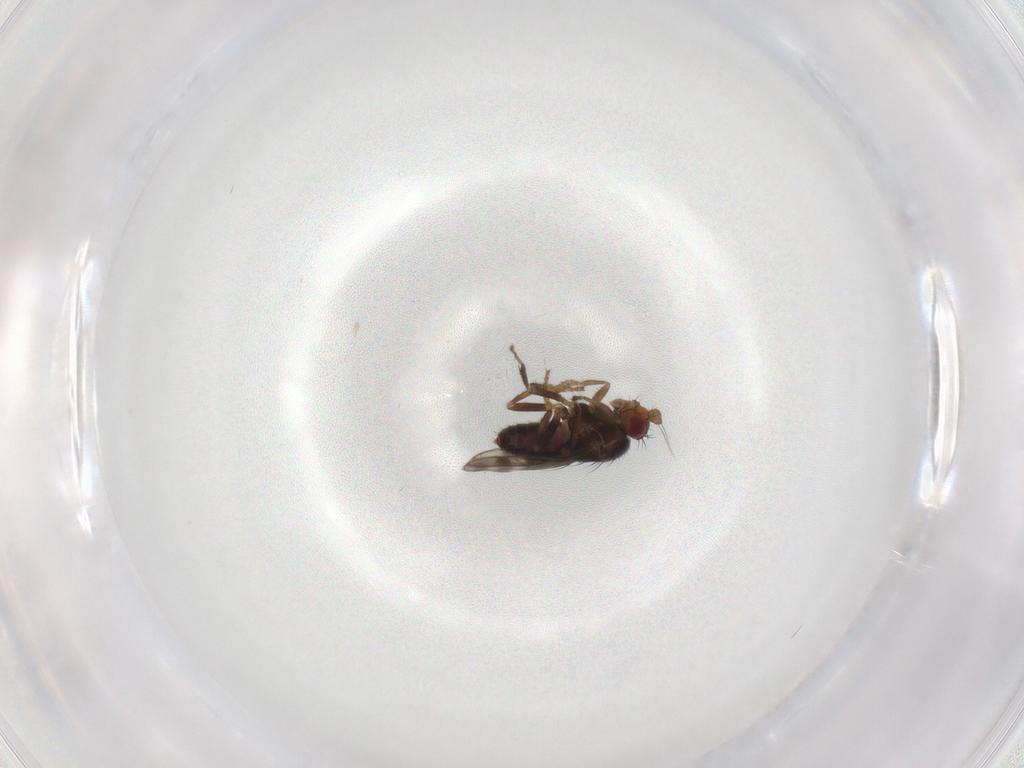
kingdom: Animalia
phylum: Arthropoda
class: Insecta
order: Diptera
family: Sphaeroceridae
